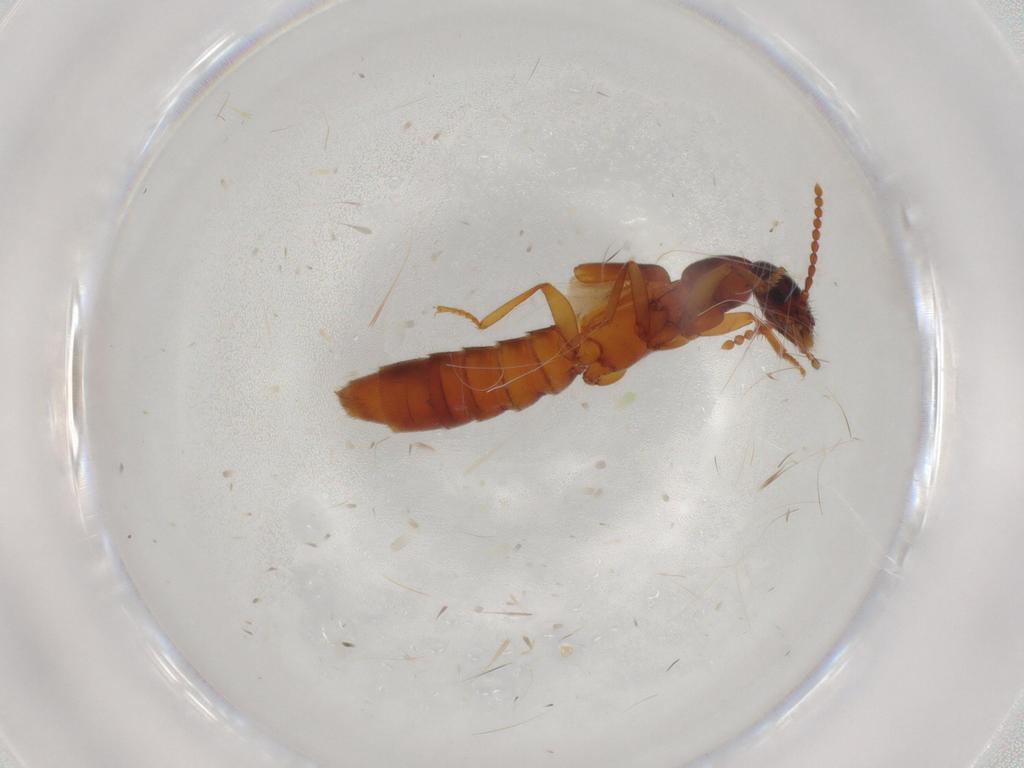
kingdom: Animalia
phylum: Arthropoda
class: Insecta
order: Coleoptera
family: Staphylinidae
